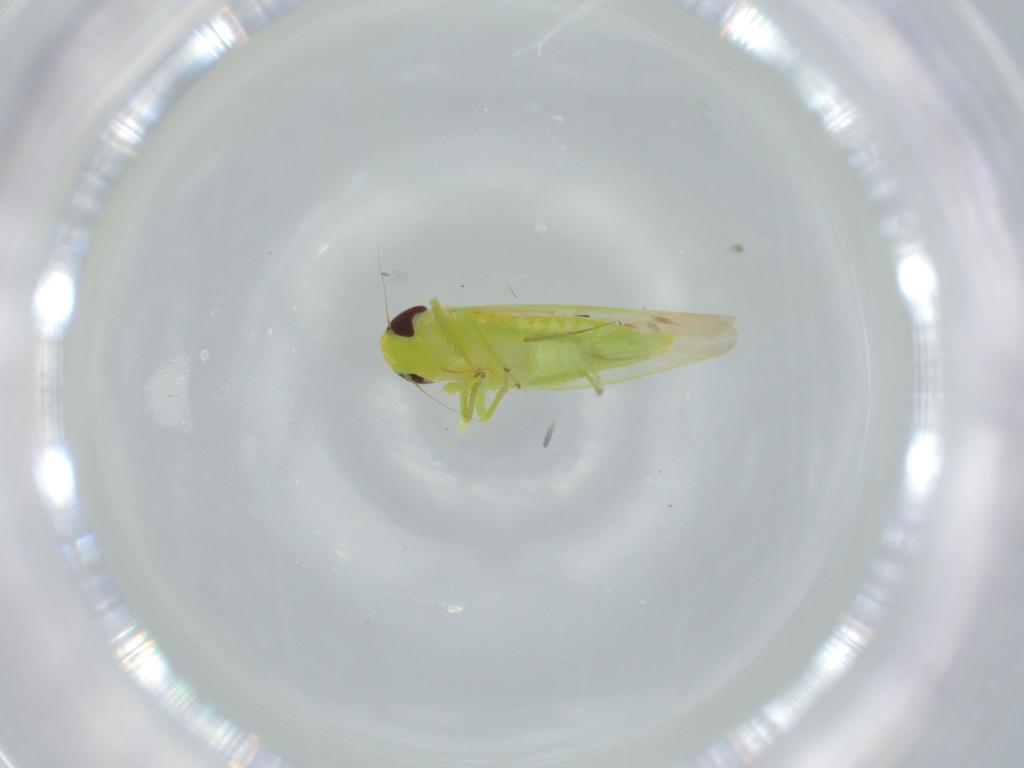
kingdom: Animalia
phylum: Arthropoda
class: Insecta
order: Hemiptera
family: Cicadellidae
